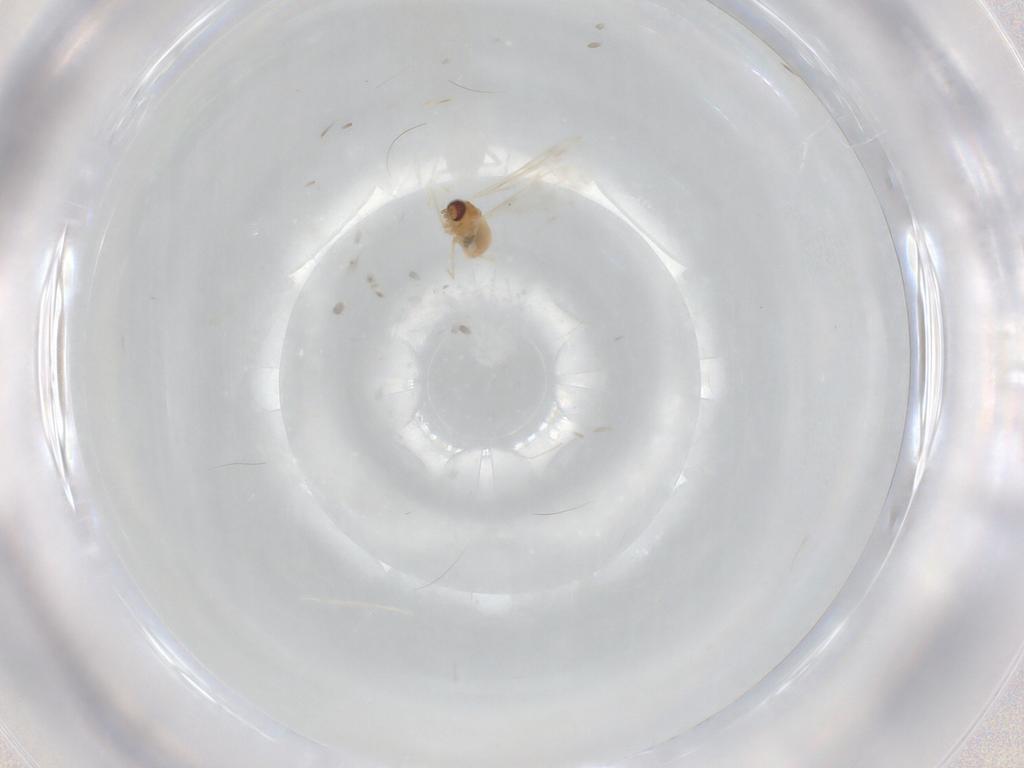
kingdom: Animalia
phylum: Arthropoda
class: Insecta
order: Diptera
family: Cecidomyiidae
